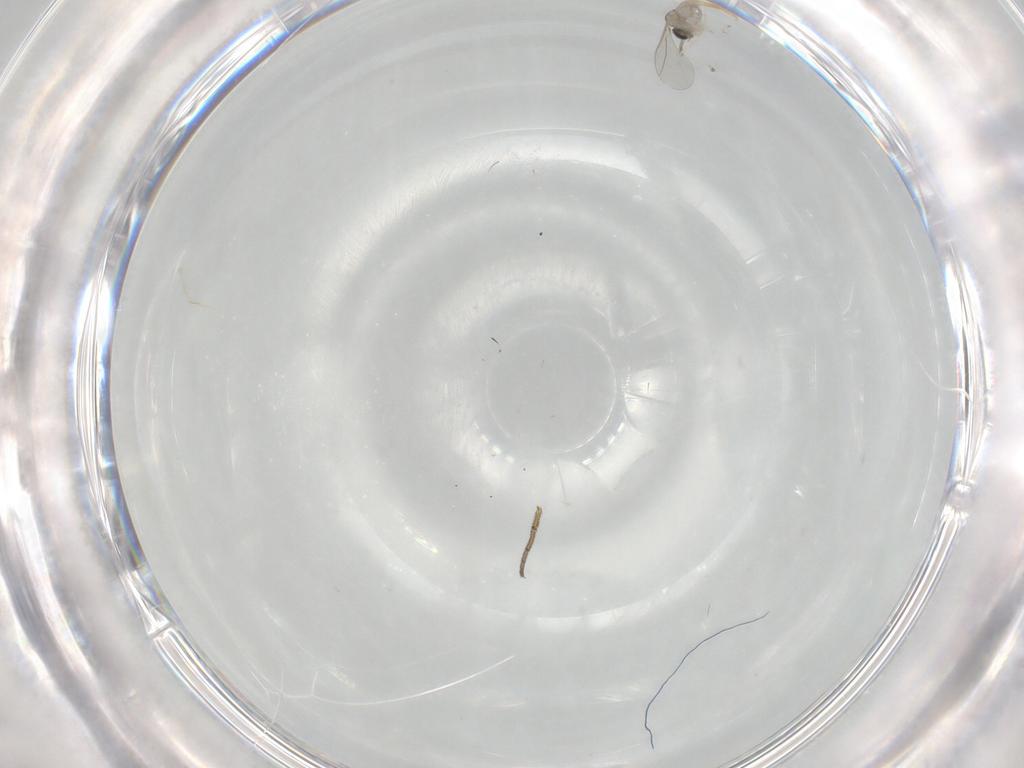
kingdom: Animalia
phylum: Arthropoda
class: Insecta
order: Diptera
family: Cecidomyiidae
